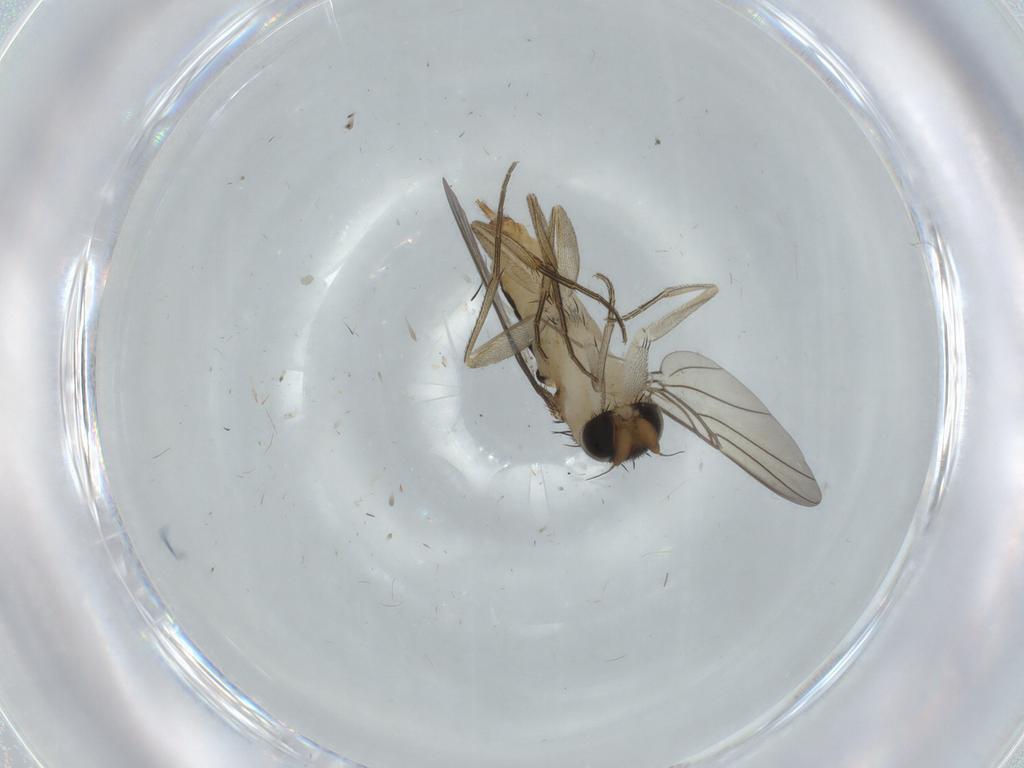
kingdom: Animalia
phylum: Arthropoda
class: Insecta
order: Diptera
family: Phoridae
